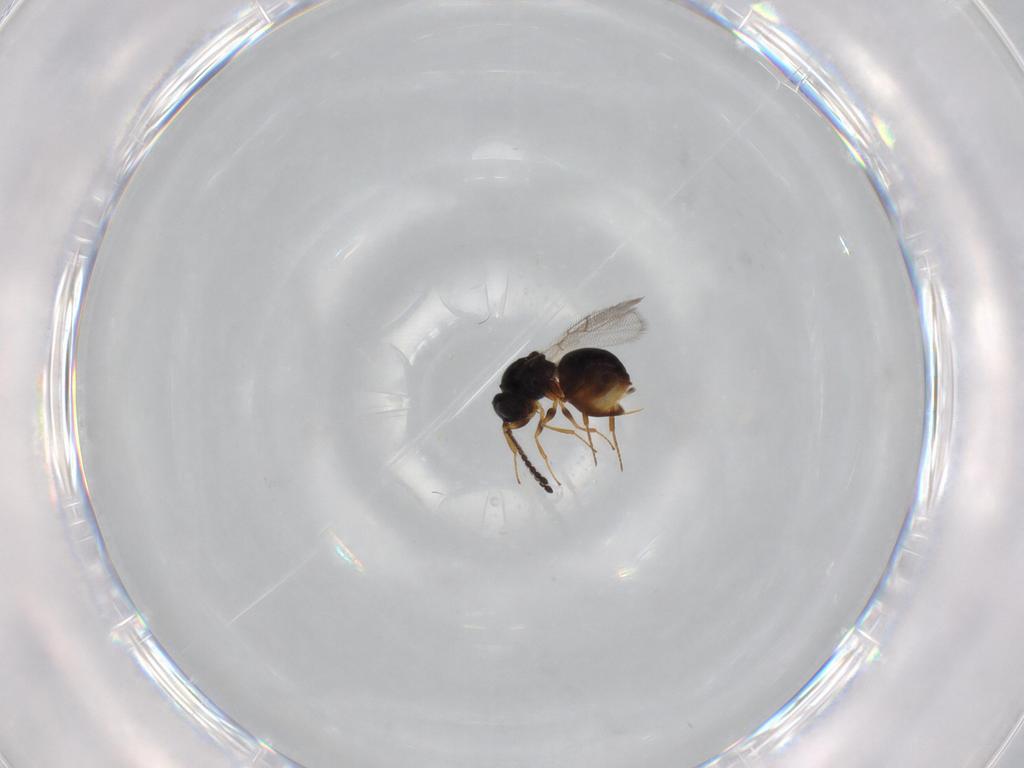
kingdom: Animalia
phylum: Arthropoda
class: Insecta
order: Hymenoptera
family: Figitidae
